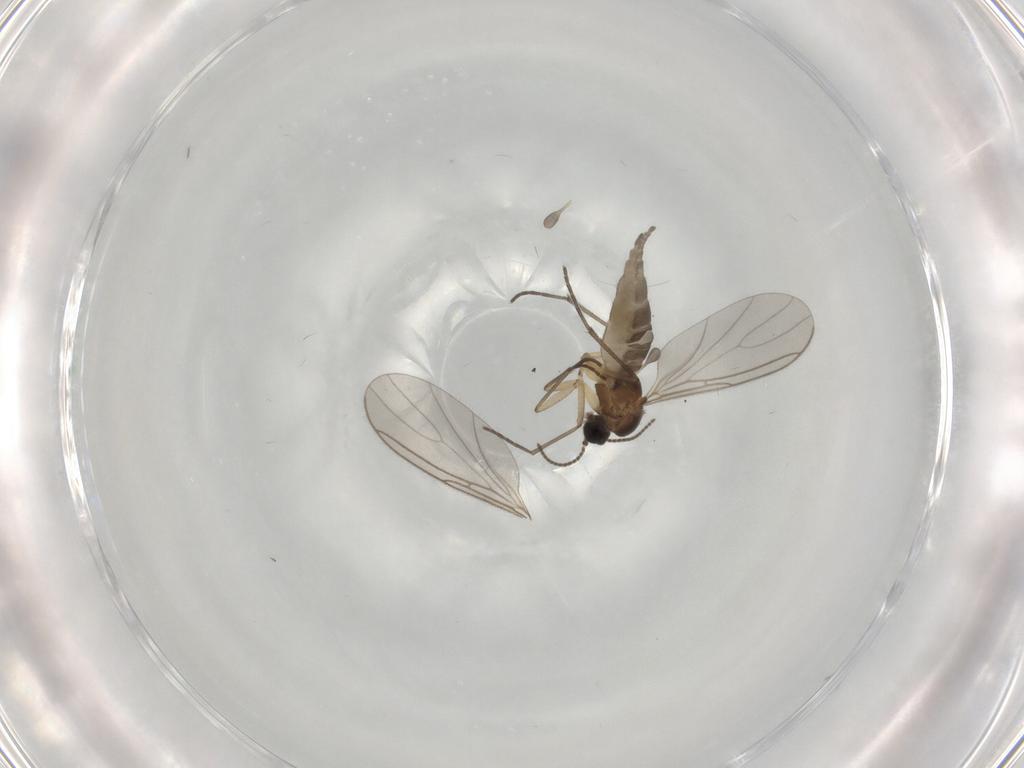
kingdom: Animalia
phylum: Arthropoda
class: Insecta
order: Diptera
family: Sciaridae
